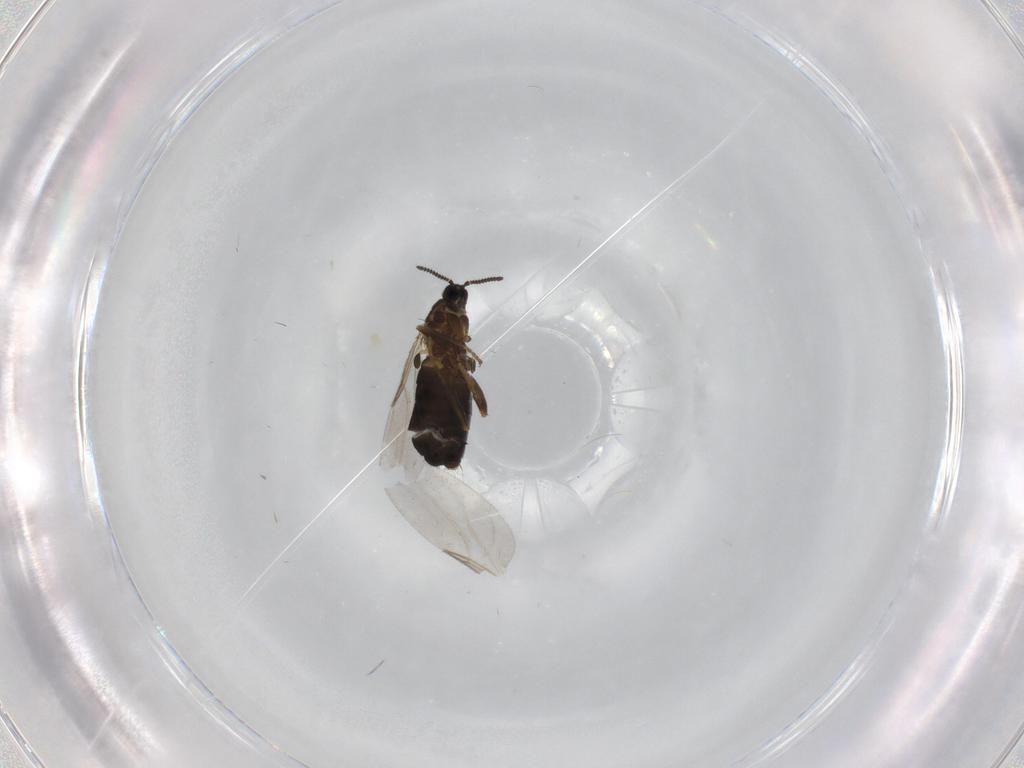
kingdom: Animalia
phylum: Arthropoda
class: Insecta
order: Diptera
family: Scatopsidae
